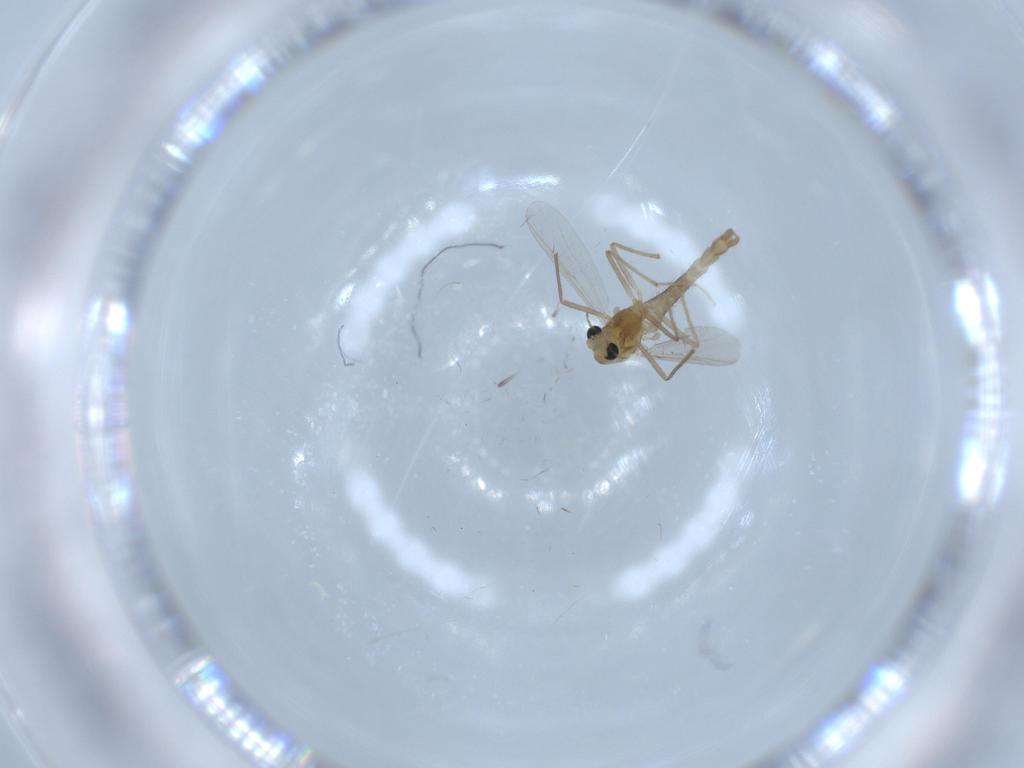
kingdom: Animalia
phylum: Arthropoda
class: Insecta
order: Diptera
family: Chironomidae
